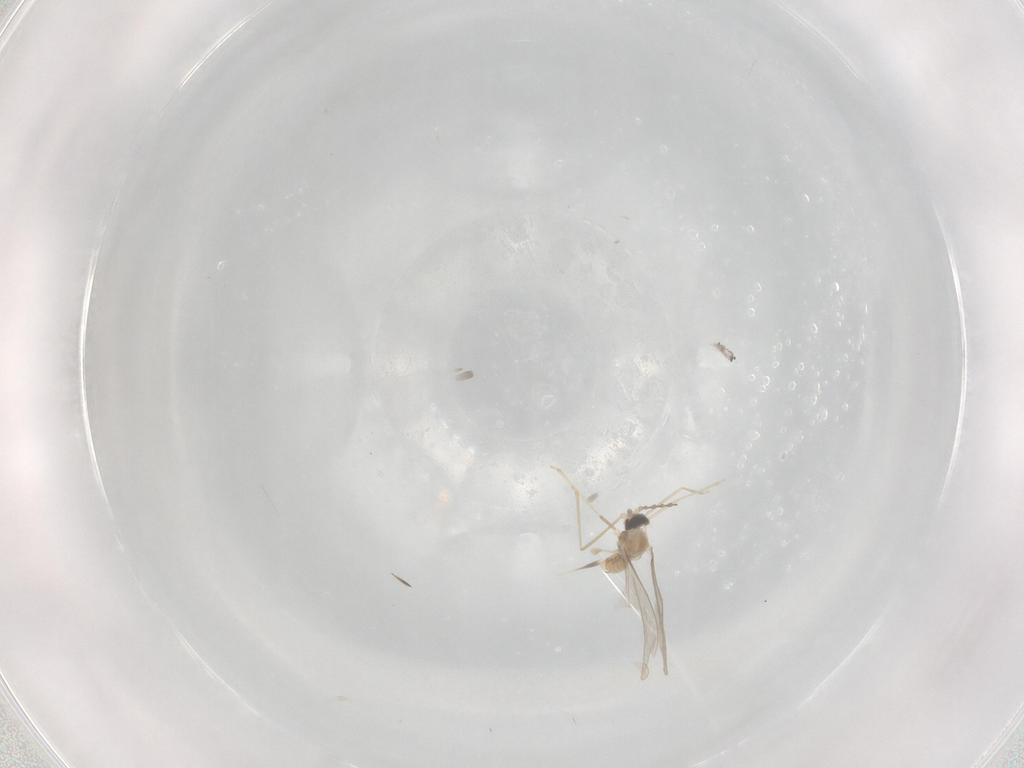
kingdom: Animalia
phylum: Arthropoda
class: Insecta
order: Diptera
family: Cecidomyiidae
